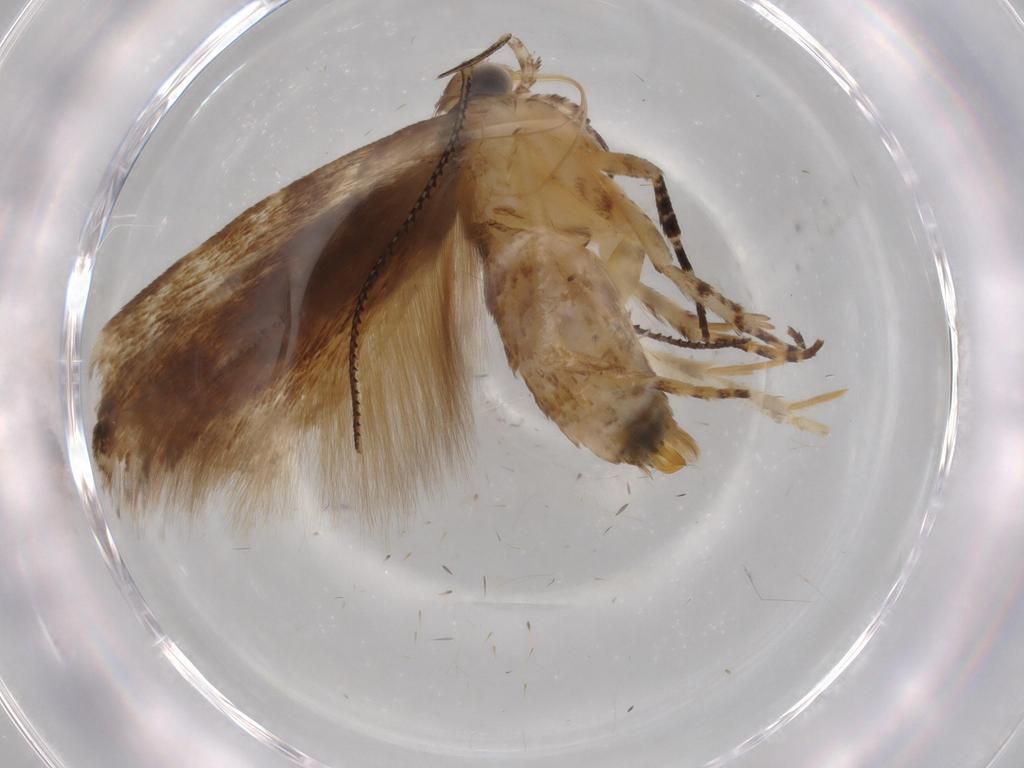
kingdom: Animalia
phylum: Arthropoda
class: Insecta
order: Lepidoptera
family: Gelechiidae
